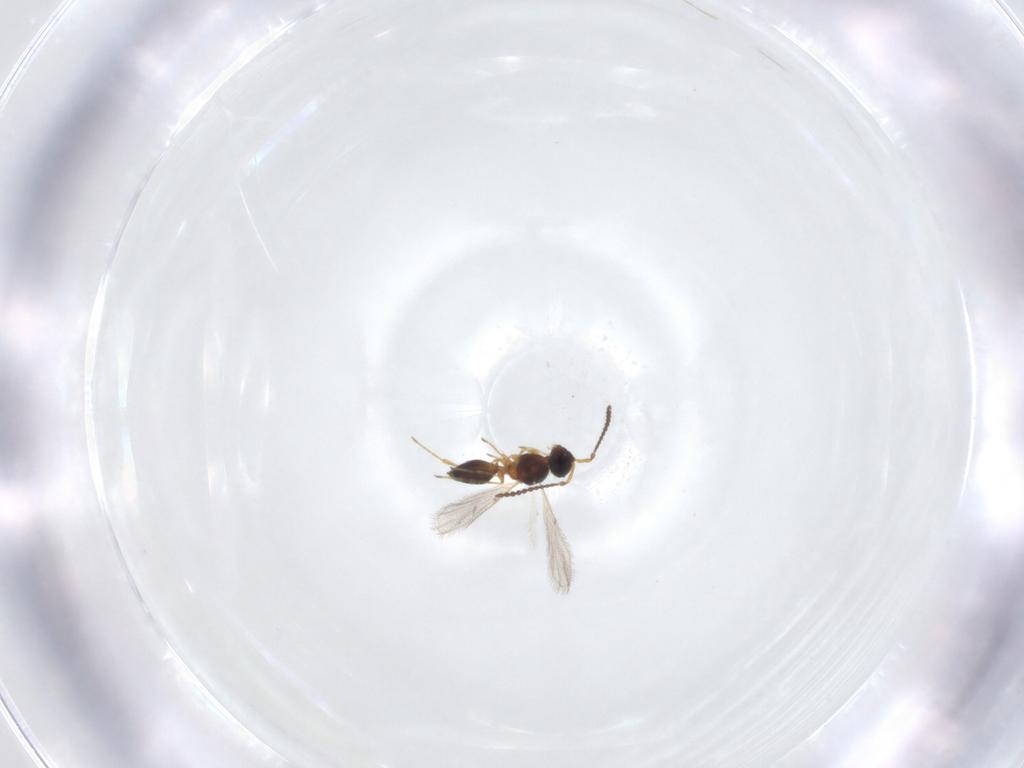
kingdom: Animalia
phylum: Arthropoda
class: Insecta
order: Hymenoptera
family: Diapriidae
